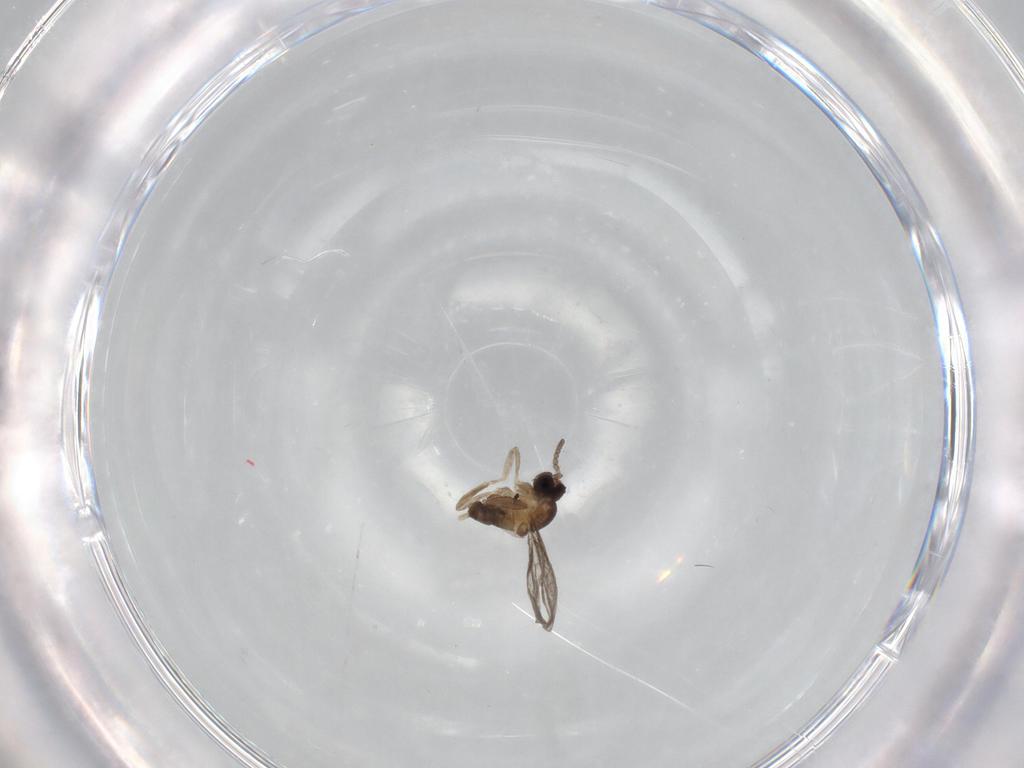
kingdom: Animalia
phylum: Arthropoda
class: Insecta
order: Diptera
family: Cecidomyiidae
